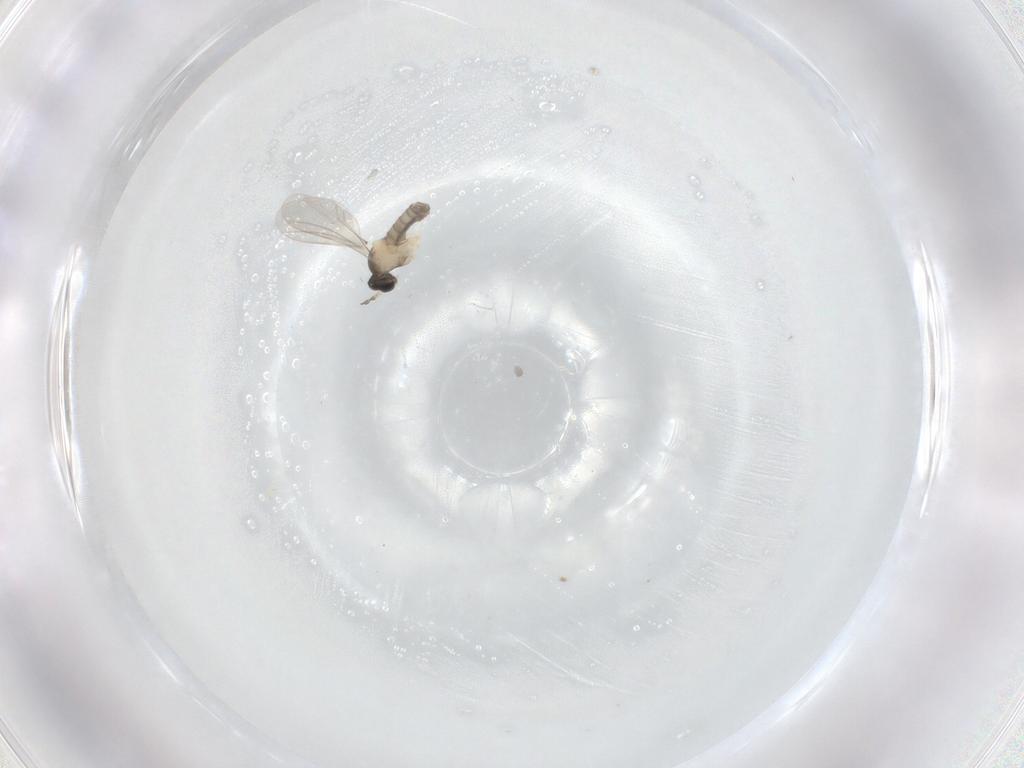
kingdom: Animalia
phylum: Arthropoda
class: Insecta
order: Diptera
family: Cecidomyiidae
